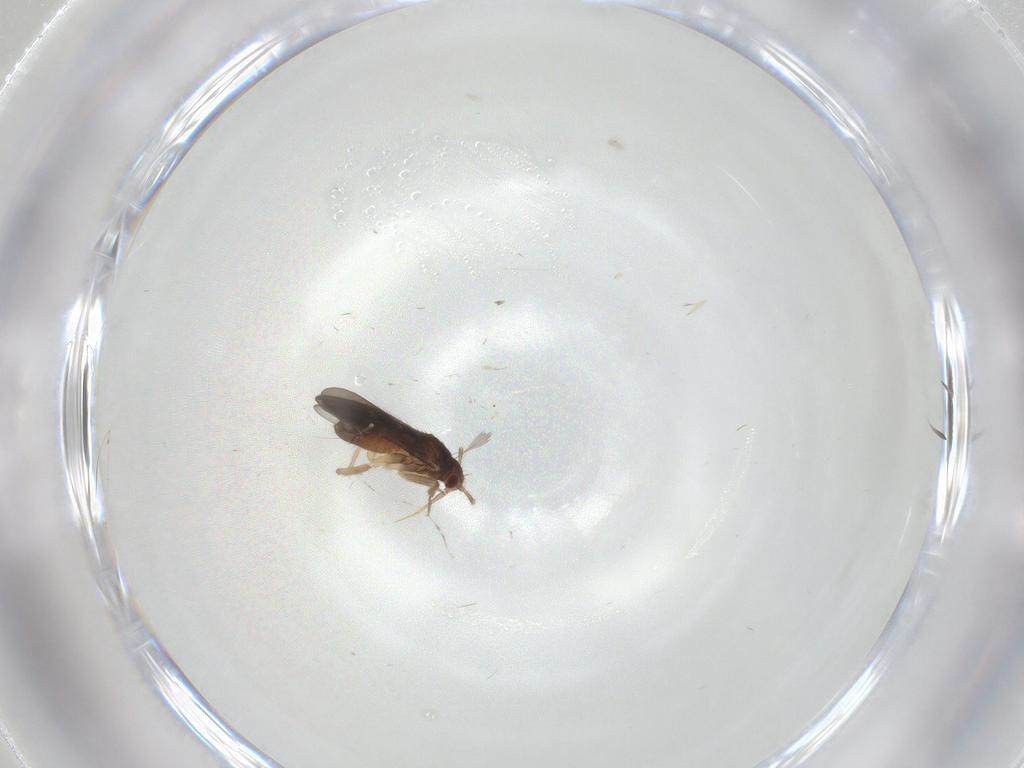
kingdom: Animalia
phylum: Arthropoda
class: Insecta
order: Hemiptera
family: Ceratocombidae
